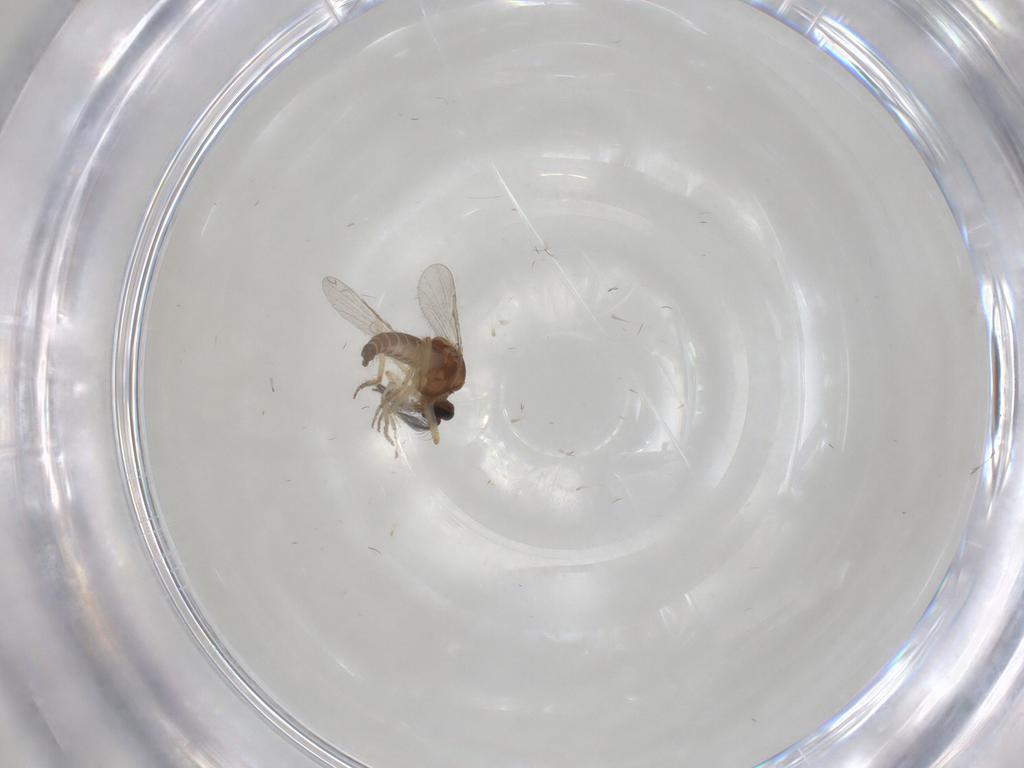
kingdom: Animalia
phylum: Arthropoda
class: Insecta
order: Diptera
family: Ceratopogonidae
